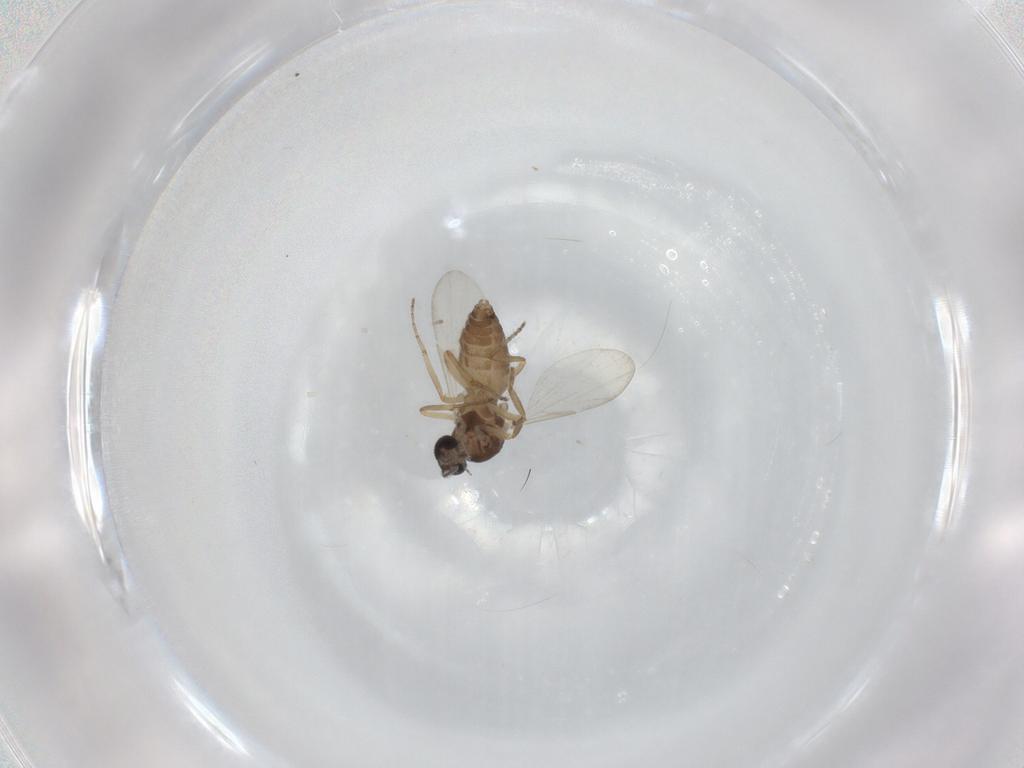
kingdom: Animalia
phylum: Arthropoda
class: Insecta
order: Diptera
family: Ceratopogonidae
